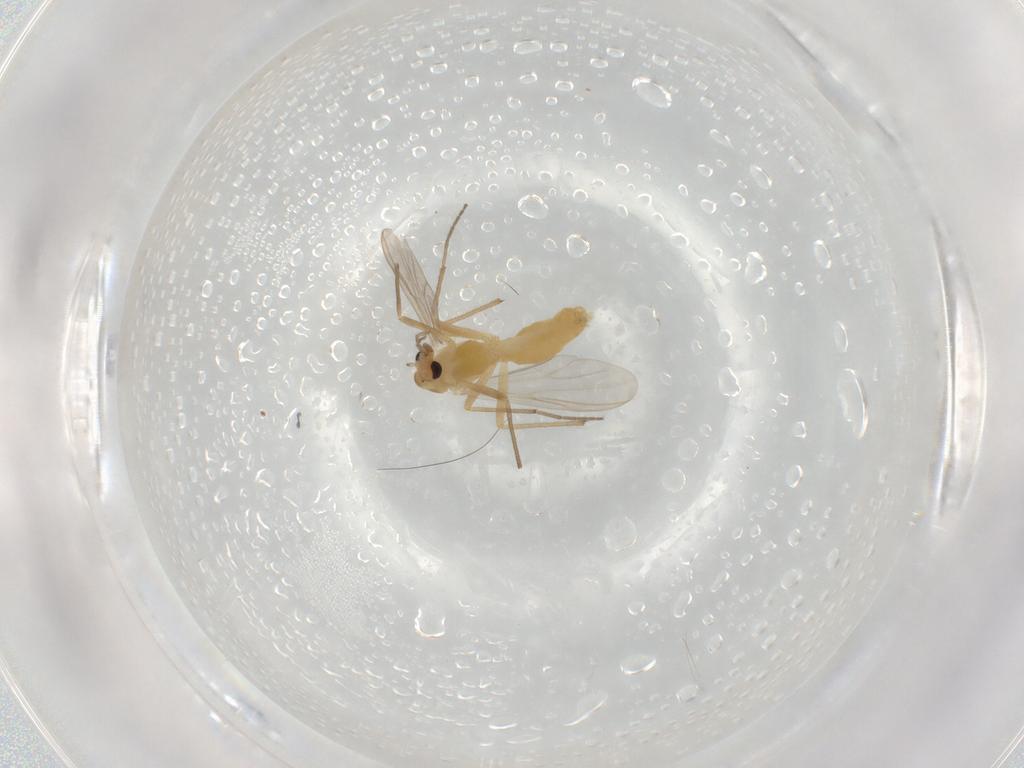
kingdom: Animalia
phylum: Arthropoda
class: Insecta
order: Diptera
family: Chironomidae
